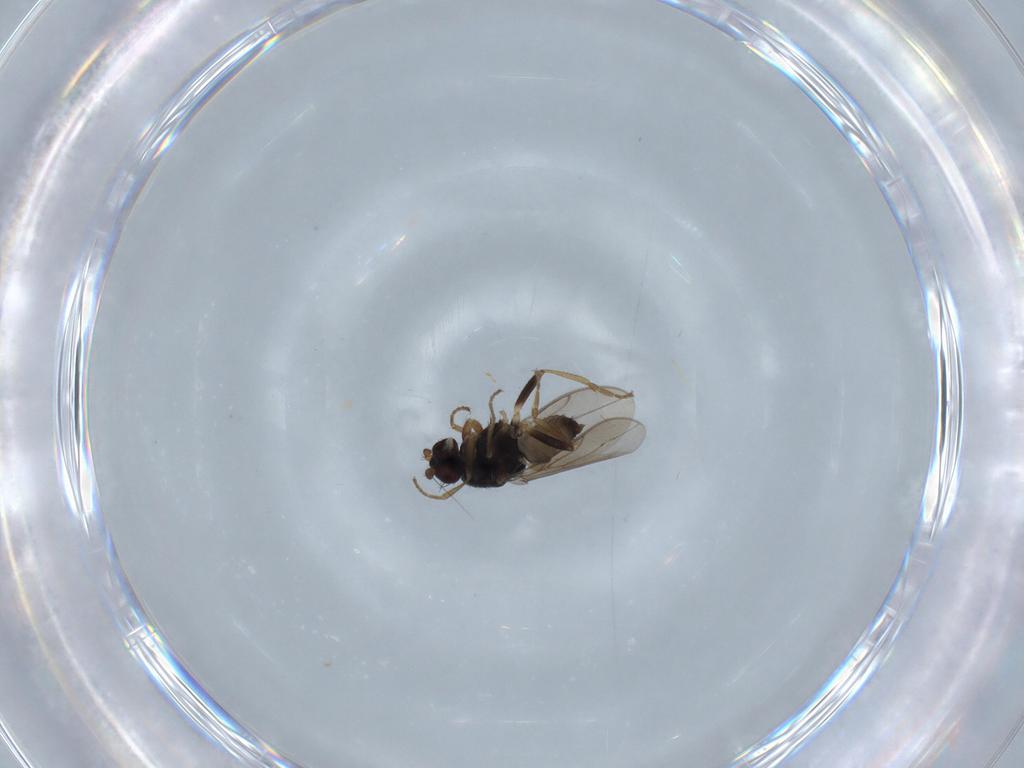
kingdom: Animalia
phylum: Arthropoda
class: Insecta
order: Diptera
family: Sphaeroceridae
